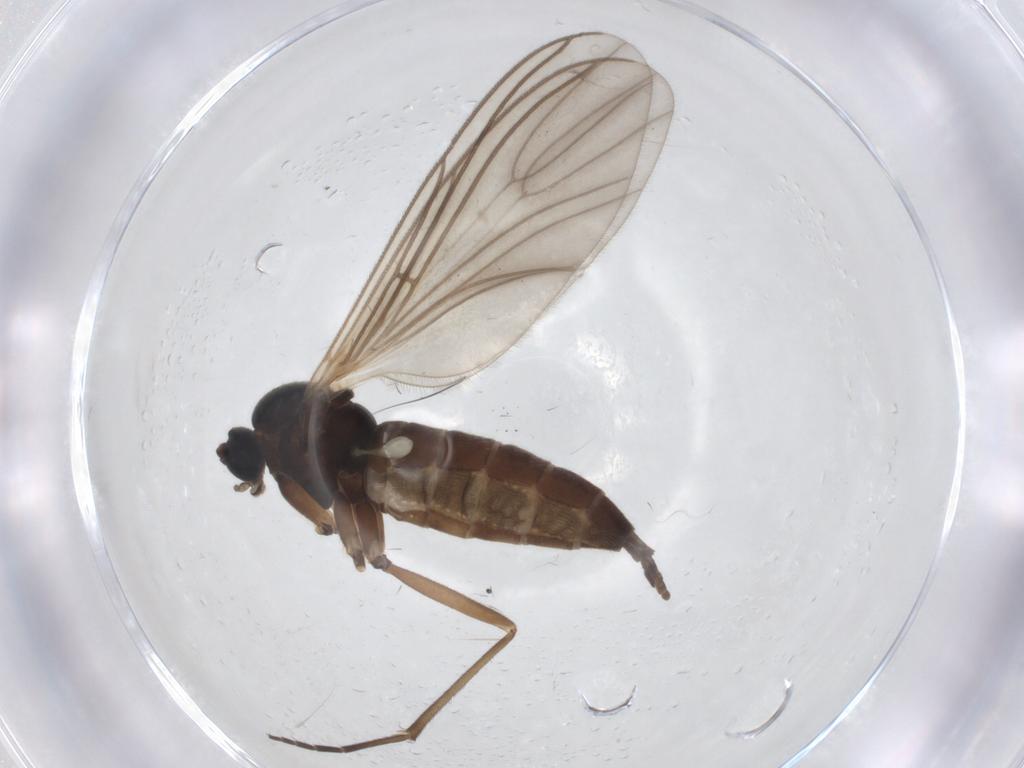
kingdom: Animalia
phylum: Arthropoda
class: Insecta
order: Diptera
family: Sciaridae
